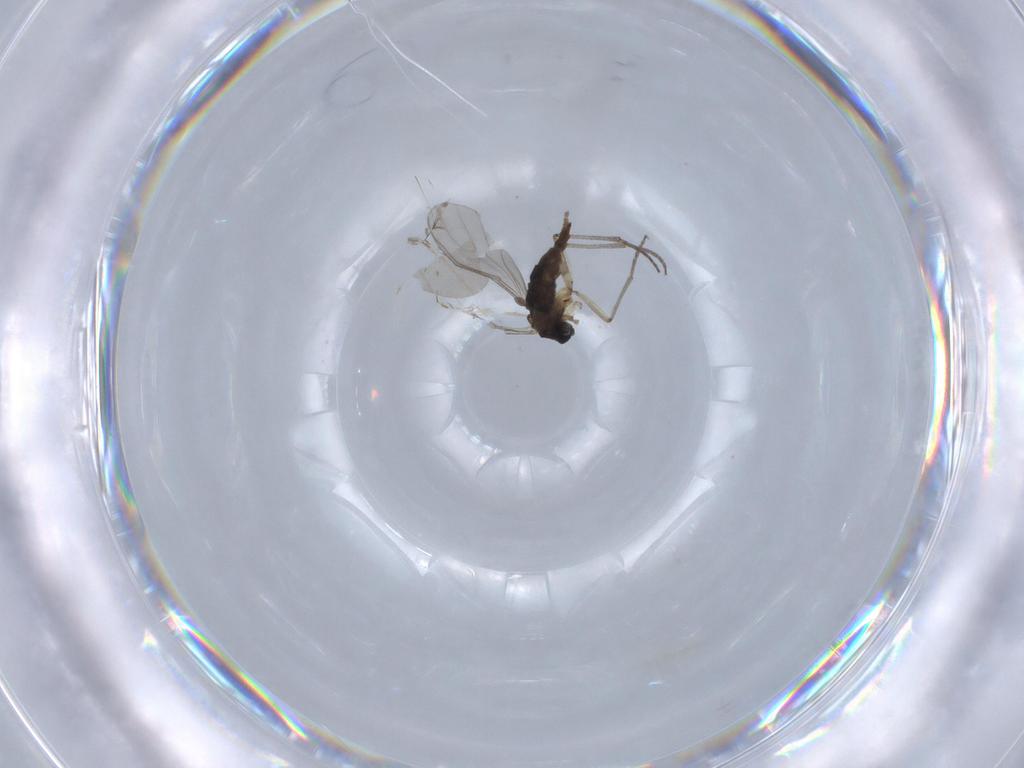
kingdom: Animalia
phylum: Arthropoda
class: Insecta
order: Diptera
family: Sciaridae
